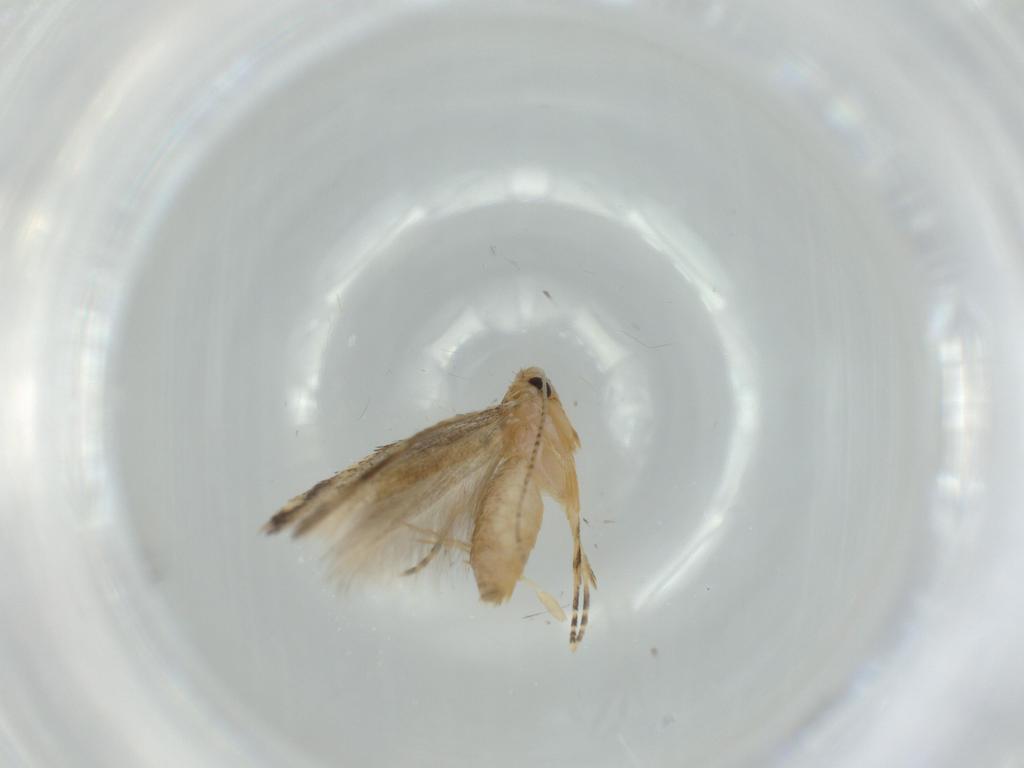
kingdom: Animalia
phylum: Arthropoda
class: Insecta
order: Lepidoptera
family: Bucculatricidae
